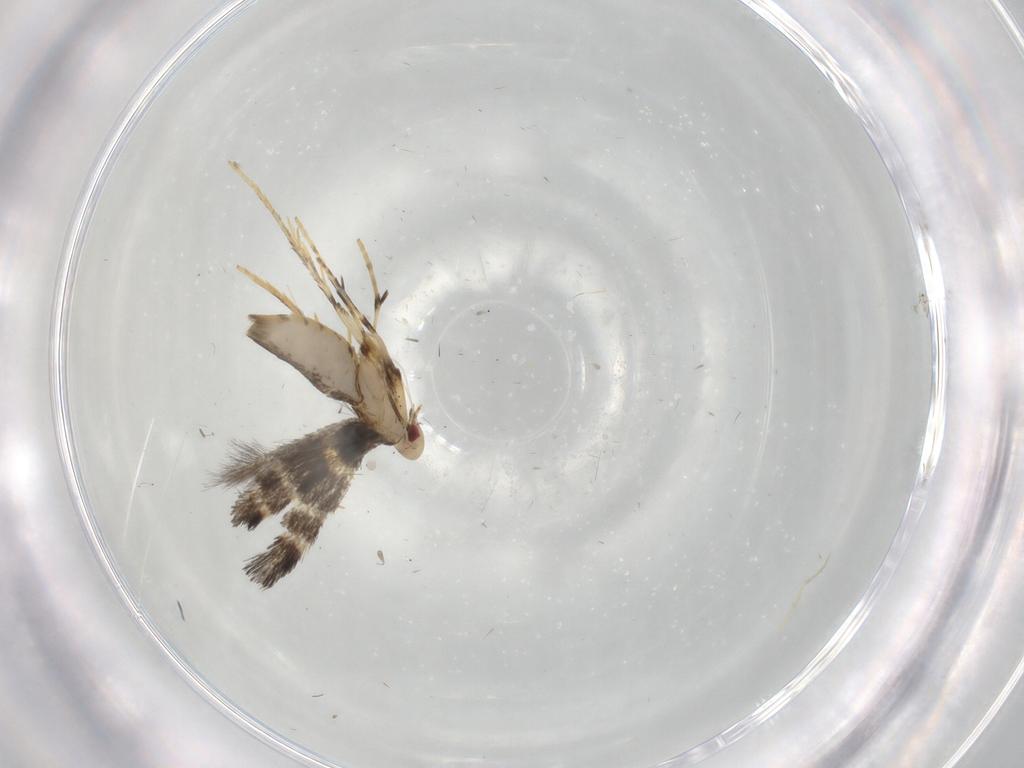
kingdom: Animalia
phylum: Arthropoda
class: Insecta
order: Lepidoptera
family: Gracillariidae
